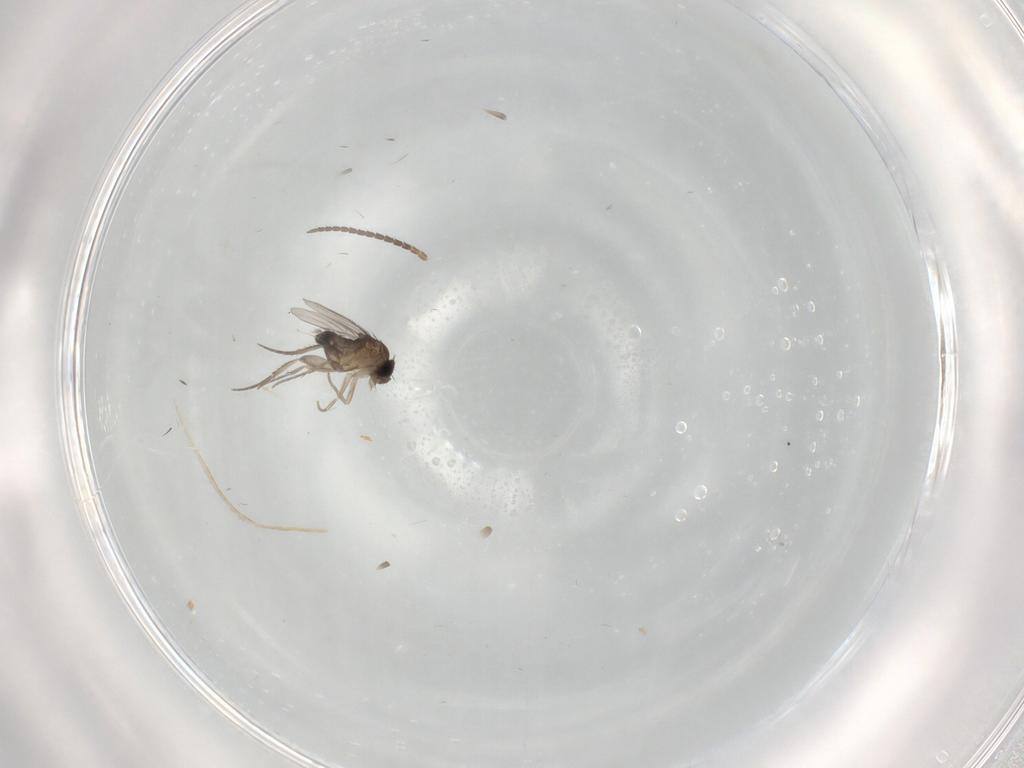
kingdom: Animalia
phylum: Arthropoda
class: Insecta
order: Diptera
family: Phoridae
